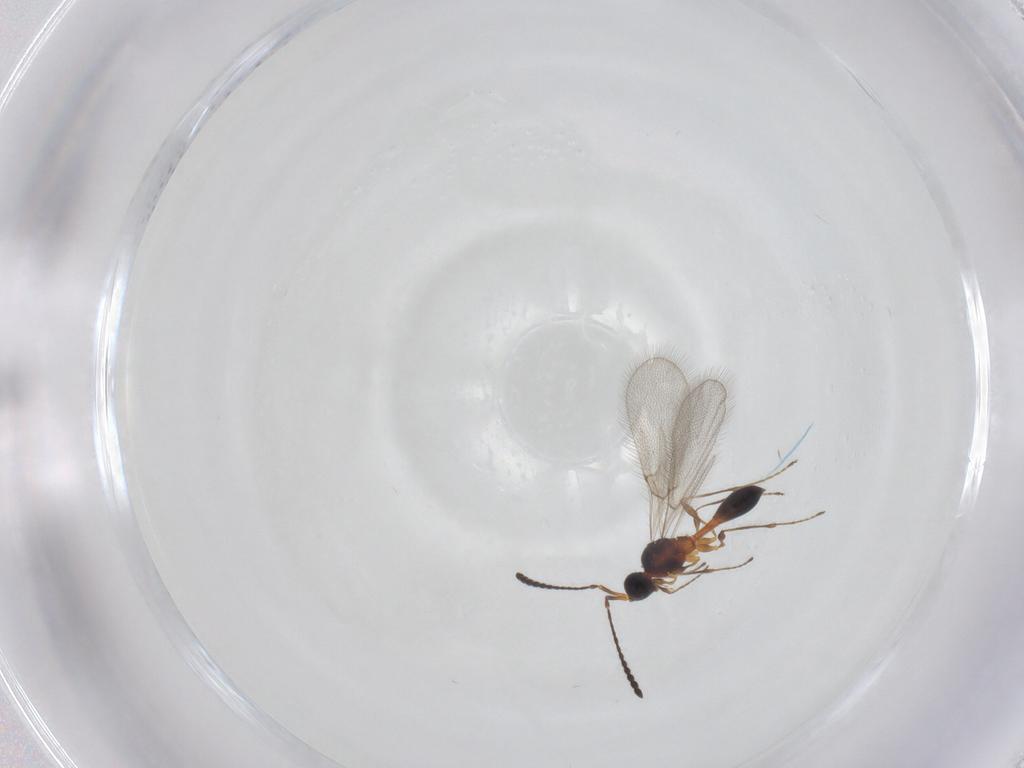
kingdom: Animalia
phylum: Arthropoda
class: Insecta
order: Hymenoptera
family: Diapriidae
